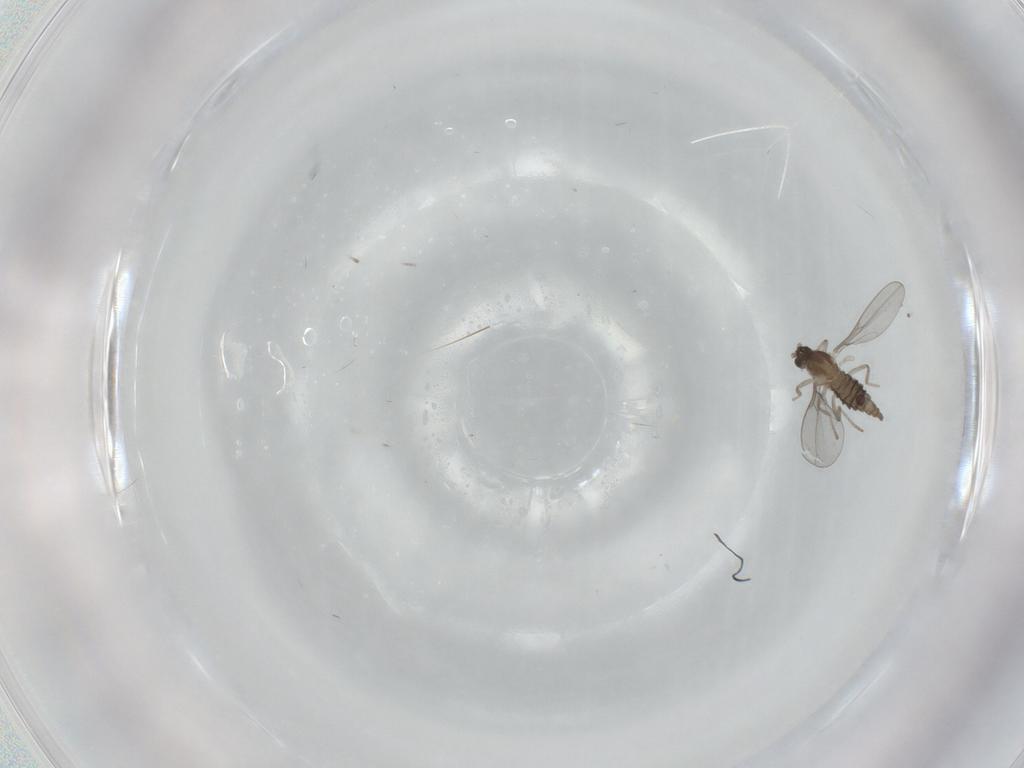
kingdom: Animalia
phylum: Arthropoda
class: Insecta
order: Diptera
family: Cecidomyiidae
